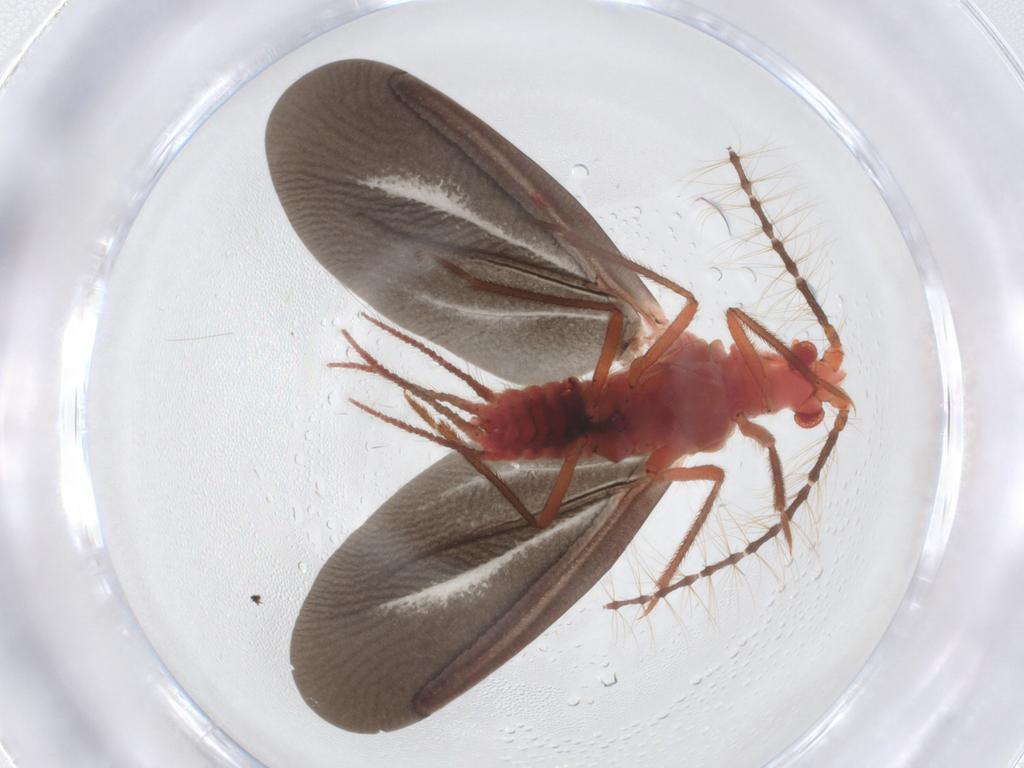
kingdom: Animalia
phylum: Arthropoda
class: Insecta
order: Hemiptera
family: Margarodidae
